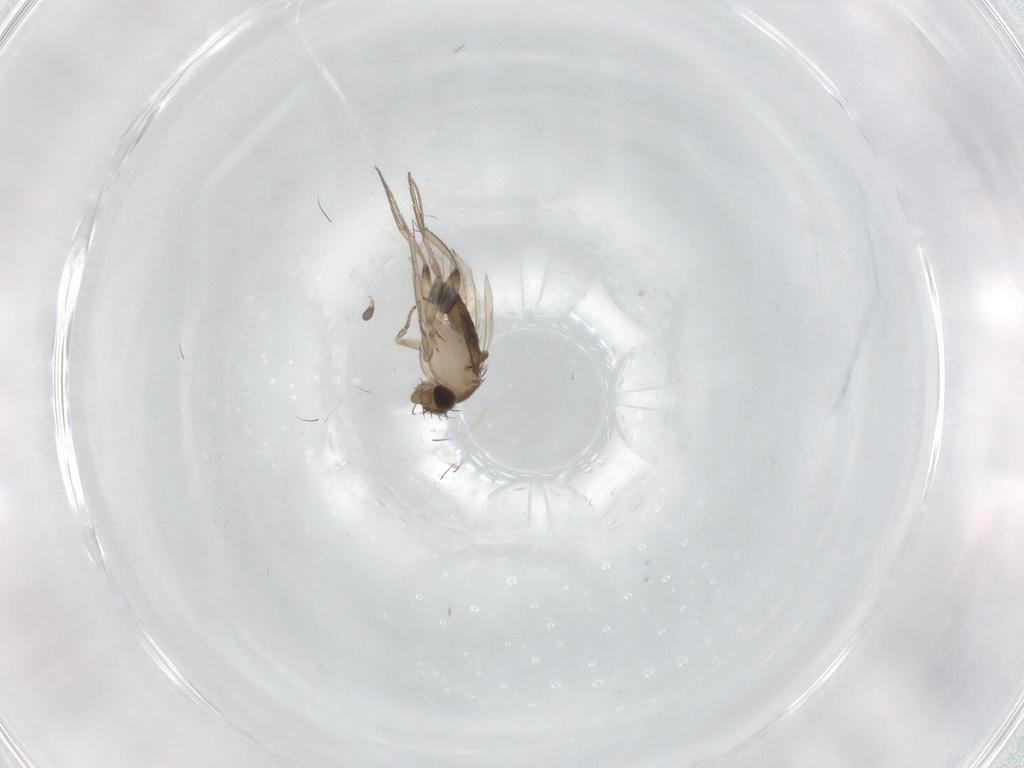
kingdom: Animalia
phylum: Arthropoda
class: Insecta
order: Diptera
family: Phoridae
